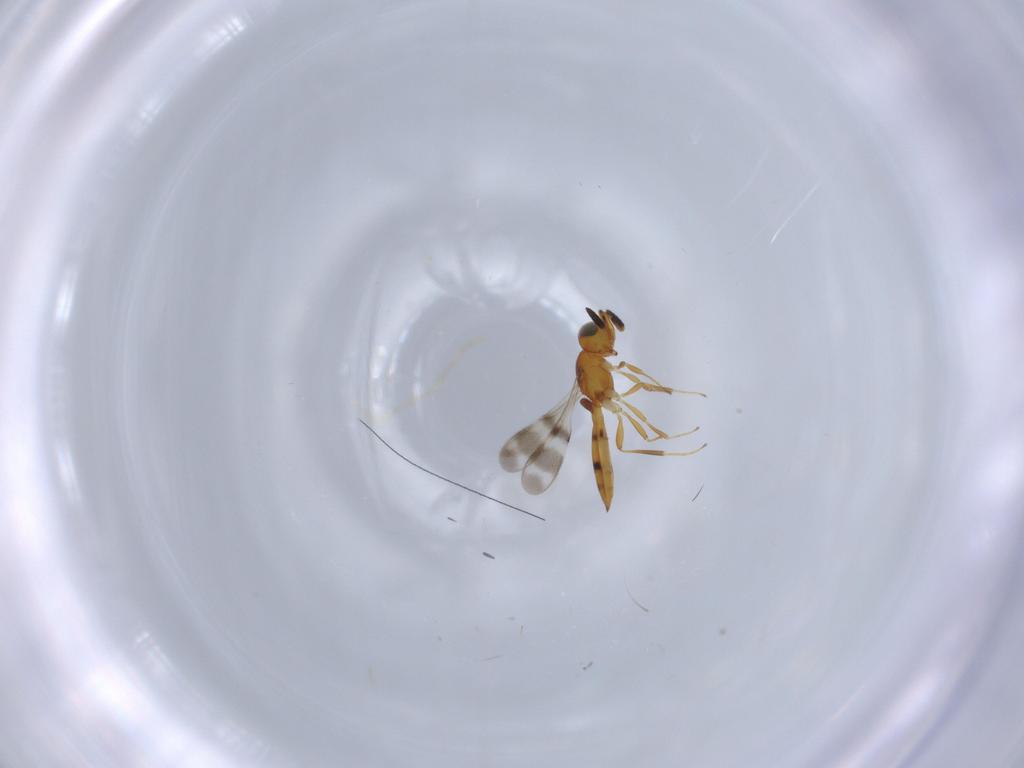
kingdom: Animalia
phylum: Arthropoda
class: Insecta
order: Hymenoptera
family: Scelionidae
